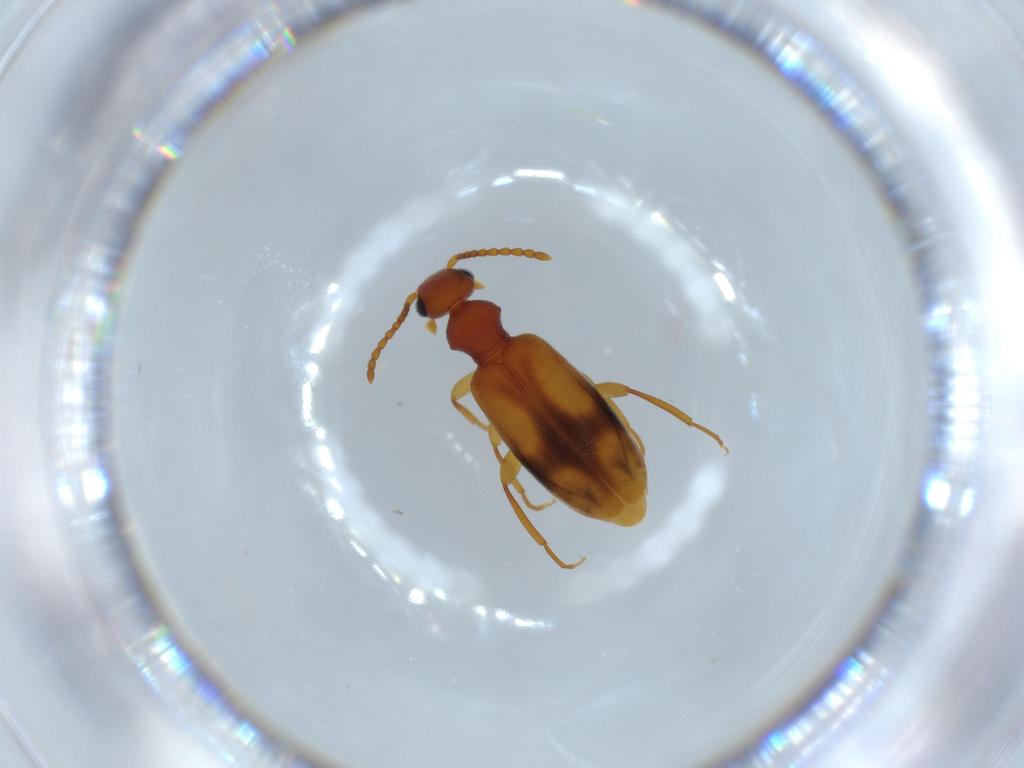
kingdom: Animalia
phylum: Arthropoda
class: Insecta
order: Coleoptera
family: Anthicidae
